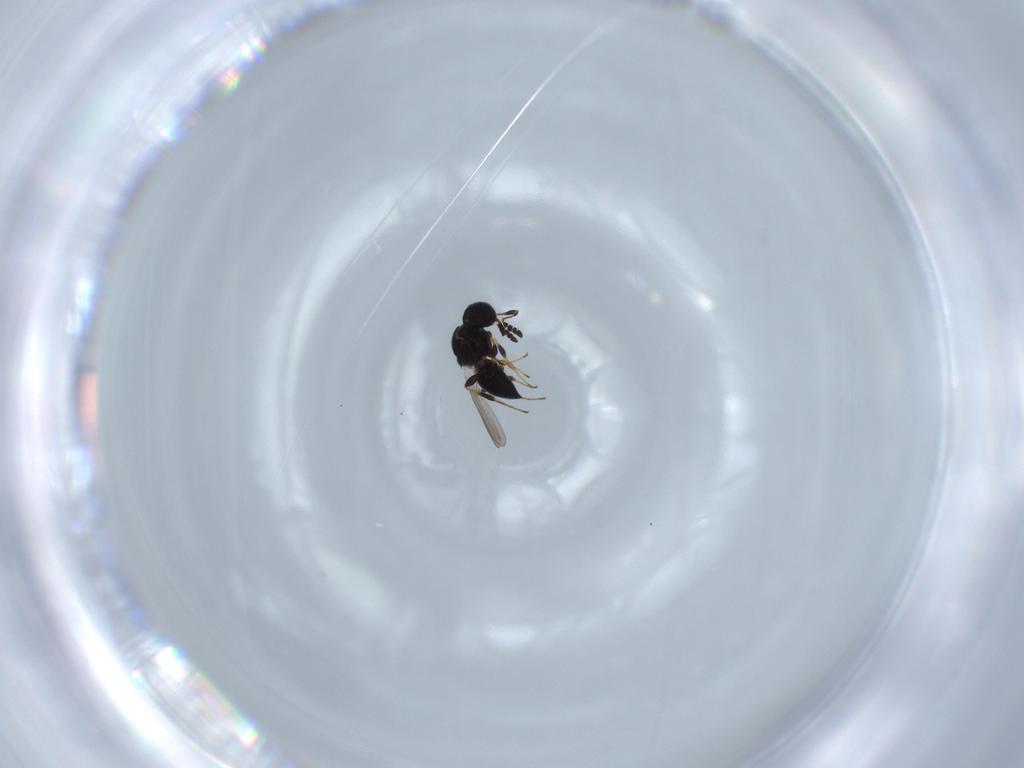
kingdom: Animalia
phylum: Arthropoda
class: Insecta
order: Hymenoptera
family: Platygastridae
